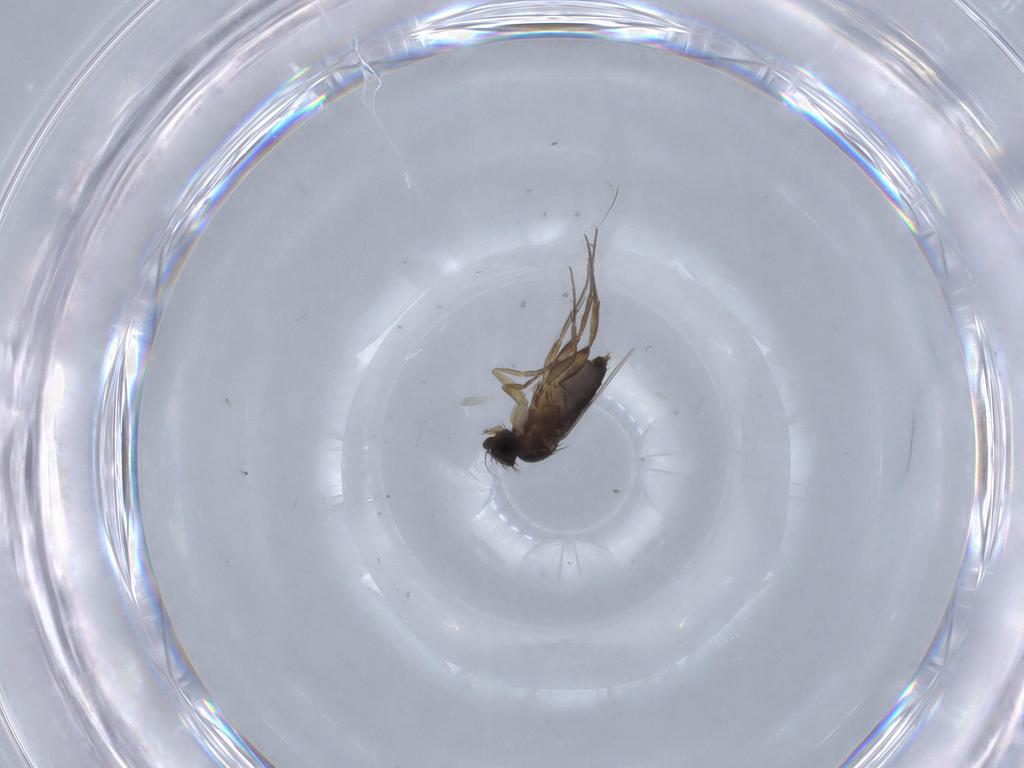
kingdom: Animalia
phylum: Arthropoda
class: Insecta
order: Diptera
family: Phoridae
